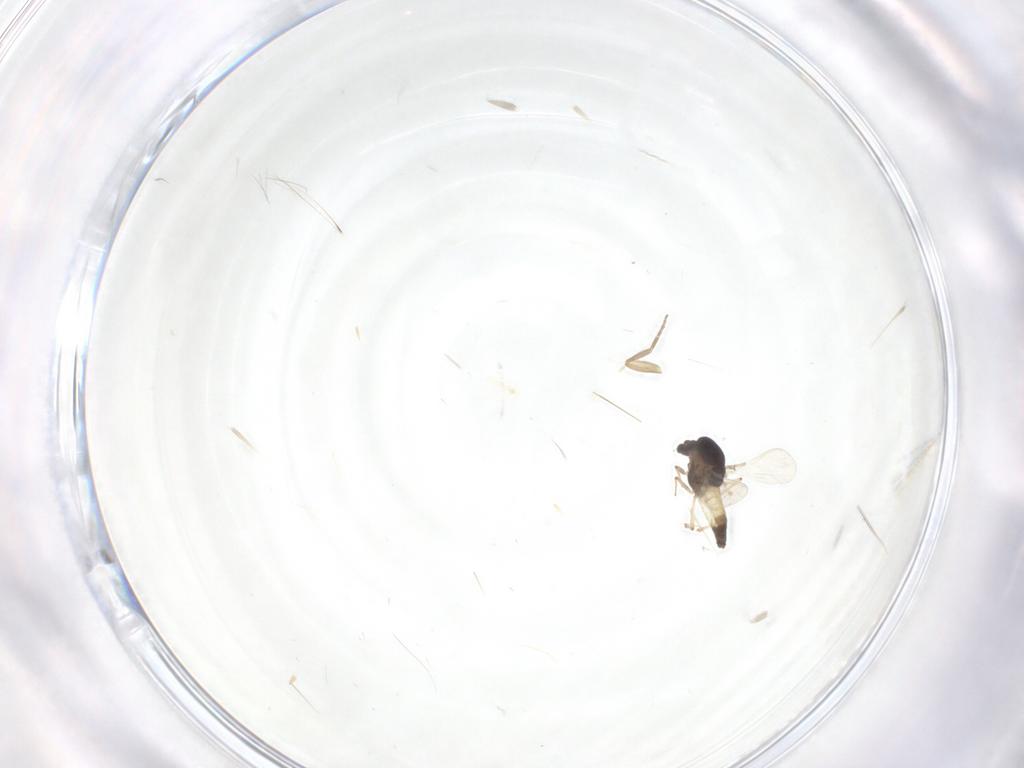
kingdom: Animalia
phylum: Arthropoda
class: Insecta
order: Diptera
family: Chironomidae
